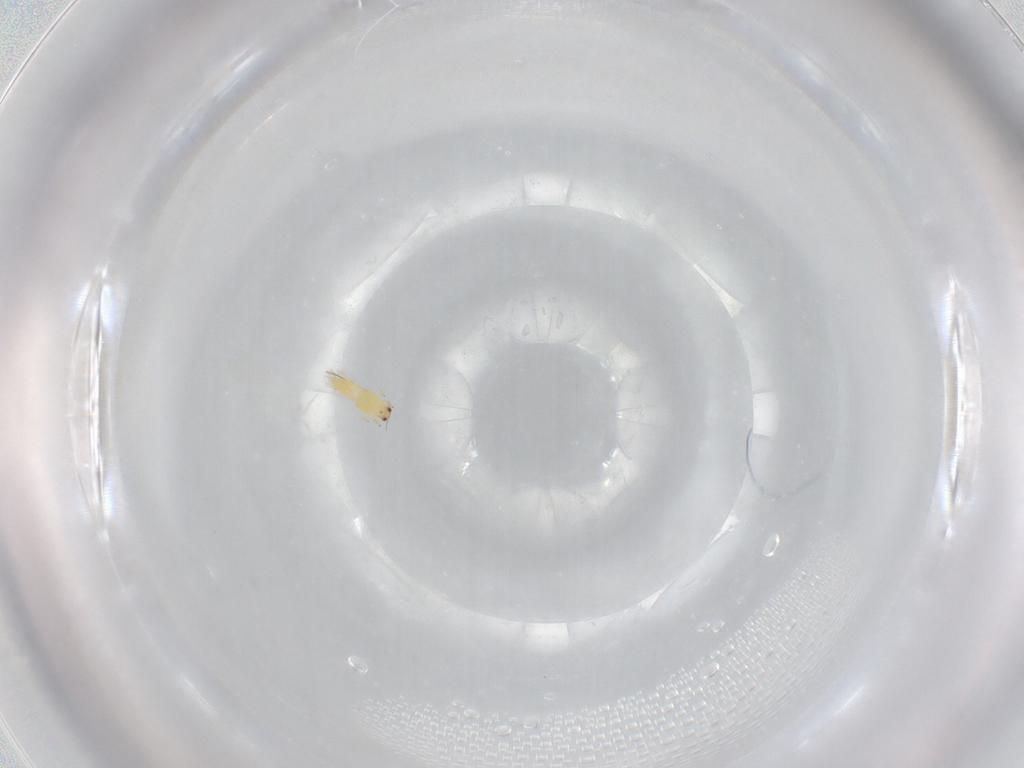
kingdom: Animalia
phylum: Arthropoda
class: Insecta
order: Thysanoptera
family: Thripidae
